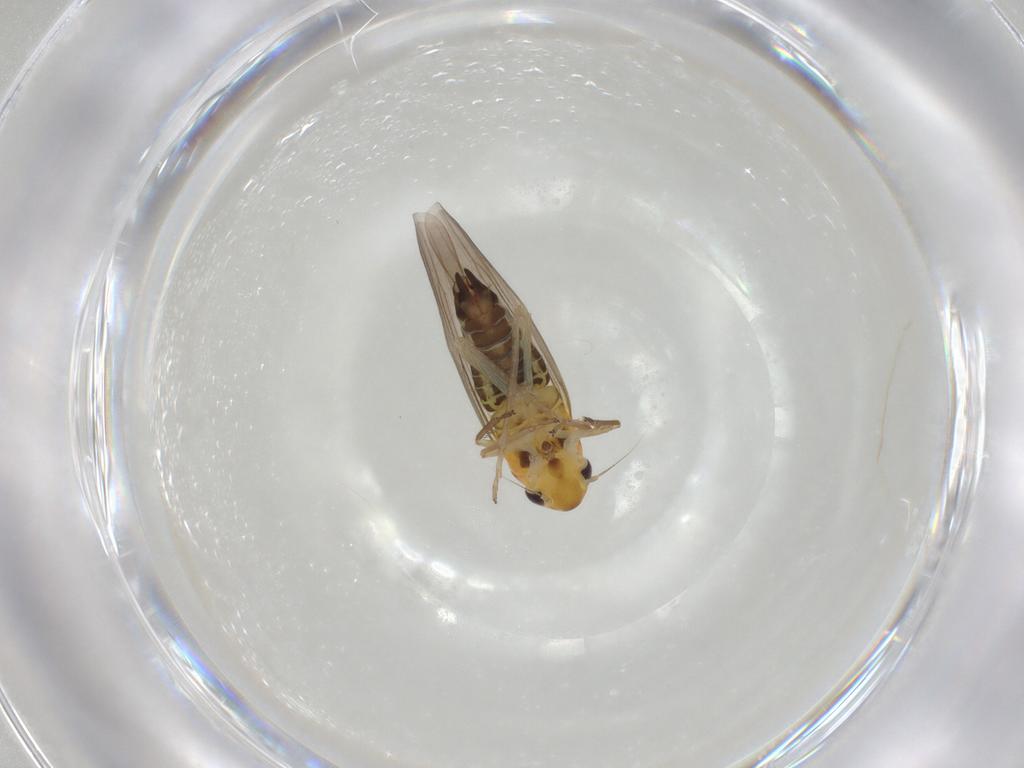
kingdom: Animalia
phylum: Arthropoda
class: Insecta
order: Hemiptera
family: Cicadellidae
